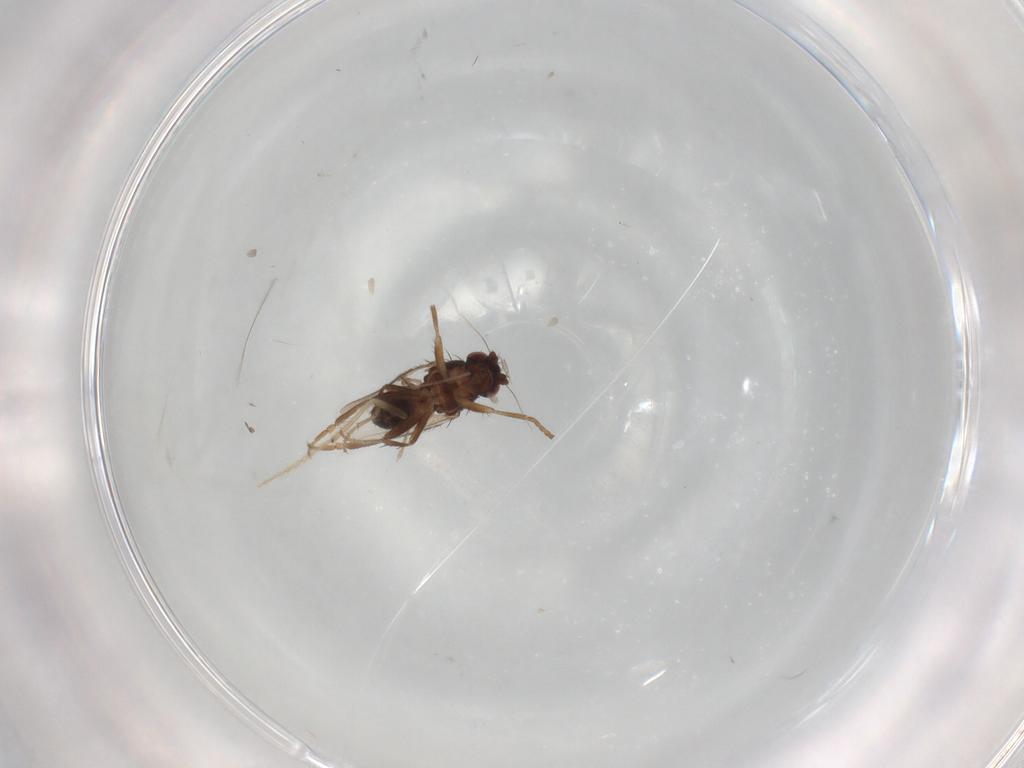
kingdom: Animalia
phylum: Arthropoda
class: Insecta
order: Diptera
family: Sphaeroceridae
